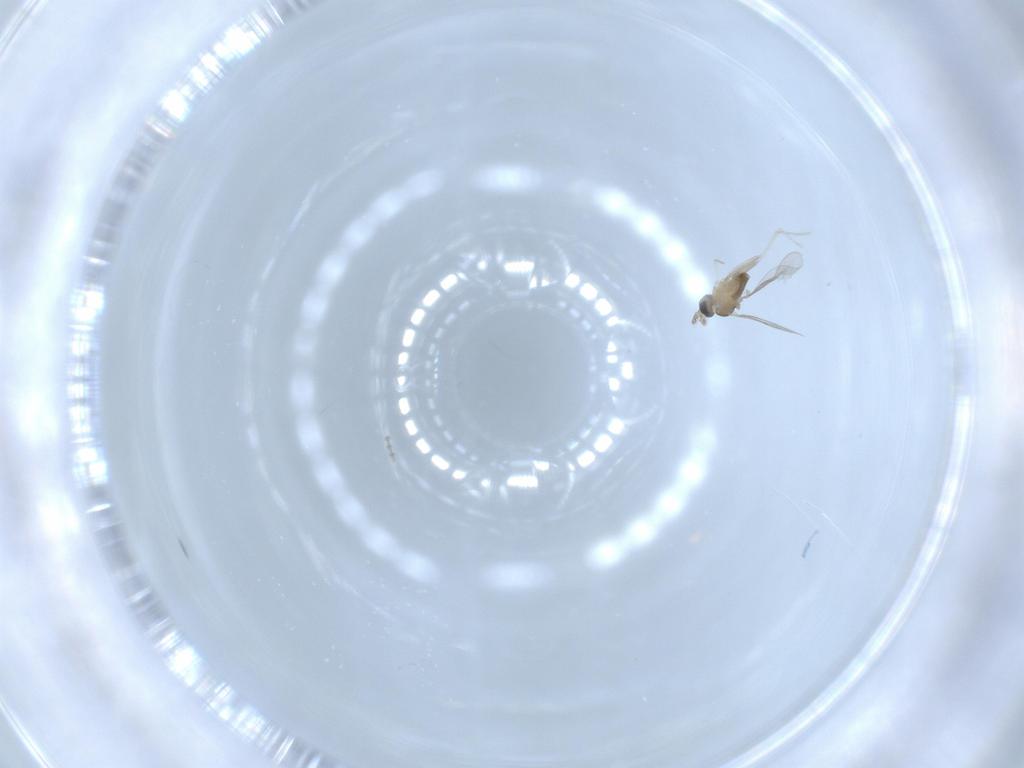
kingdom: Animalia
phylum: Arthropoda
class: Insecta
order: Diptera
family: Cecidomyiidae
